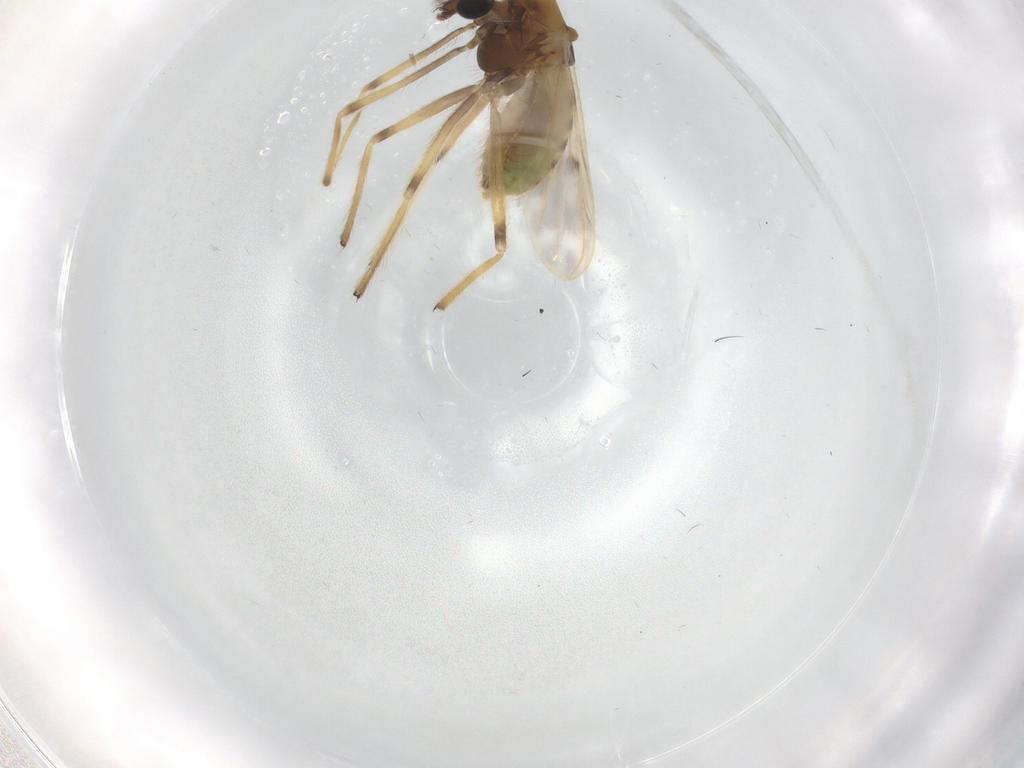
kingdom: Animalia
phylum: Arthropoda
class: Insecta
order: Diptera
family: Chironomidae
